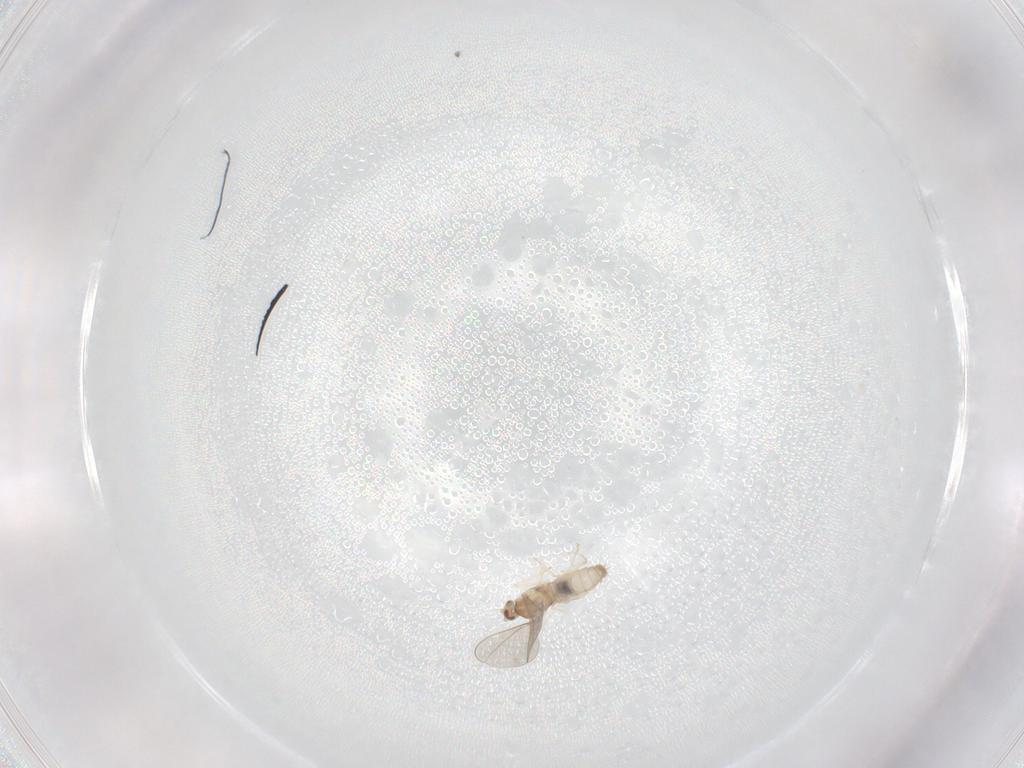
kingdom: Animalia
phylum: Arthropoda
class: Insecta
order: Diptera
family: Cecidomyiidae
